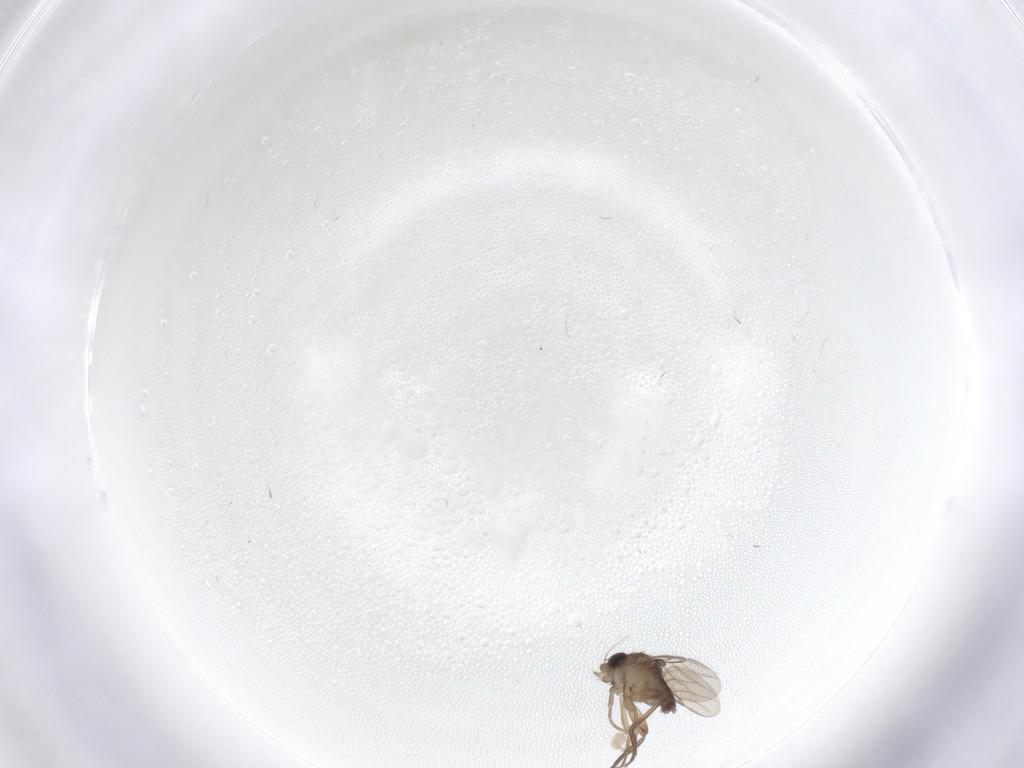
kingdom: Animalia
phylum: Arthropoda
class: Insecta
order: Diptera
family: Phoridae
